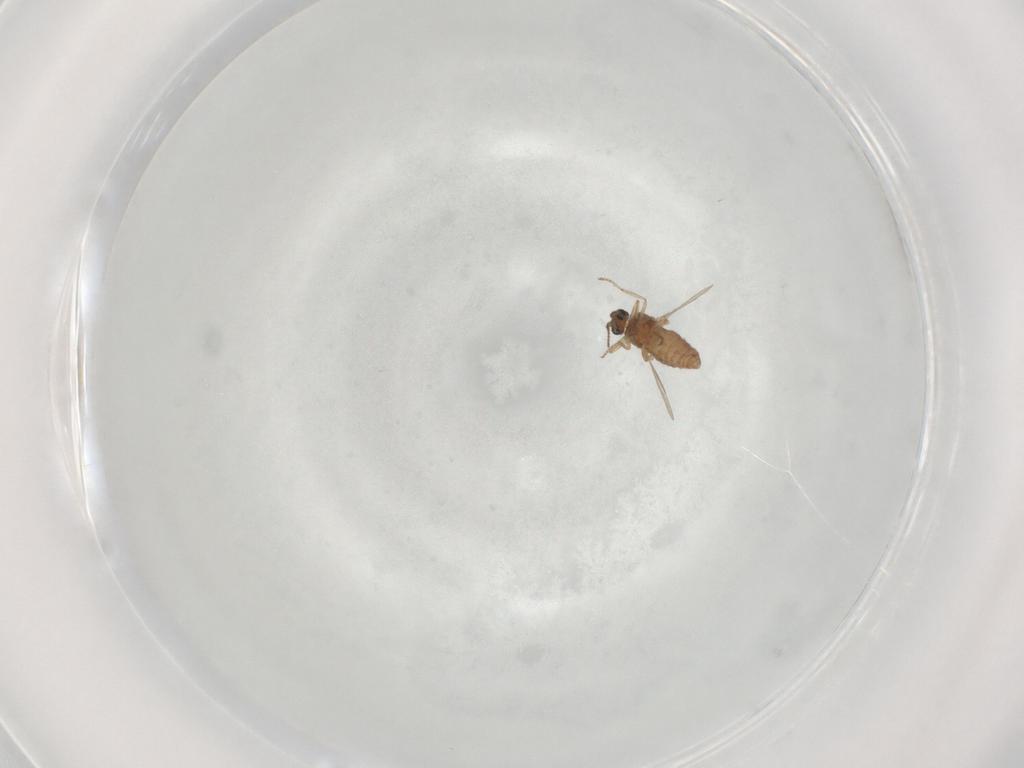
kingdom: Animalia
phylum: Arthropoda
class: Insecta
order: Diptera
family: Ceratopogonidae
